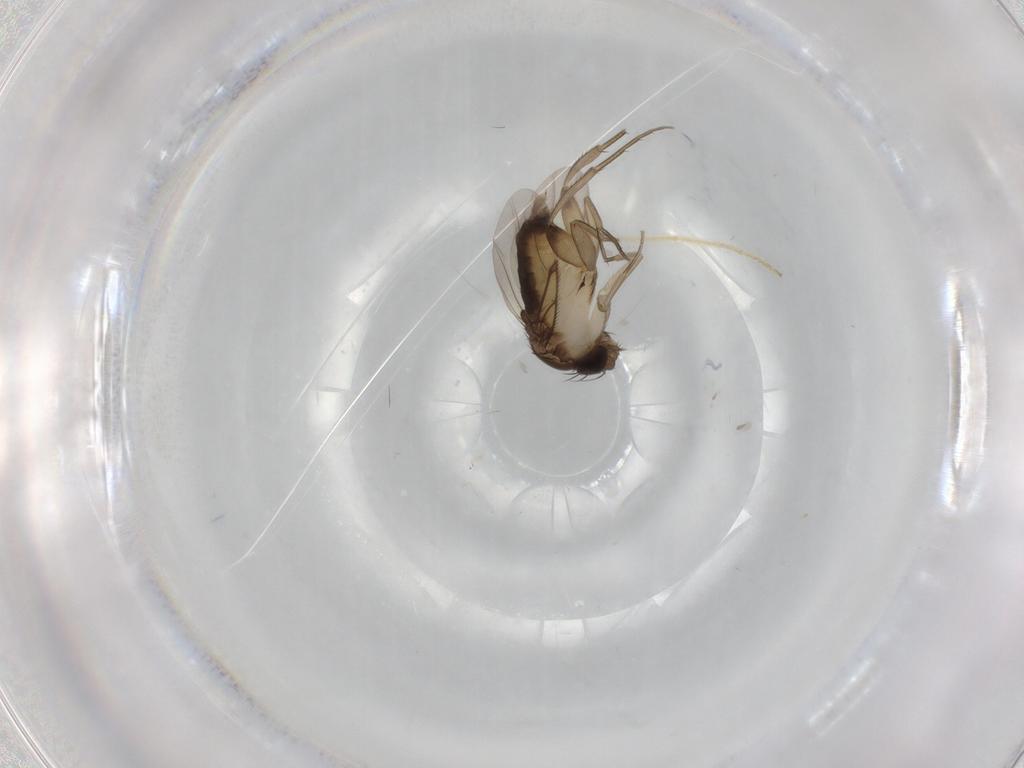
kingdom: Animalia
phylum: Arthropoda
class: Insecta
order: Diptera
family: Phoridae
